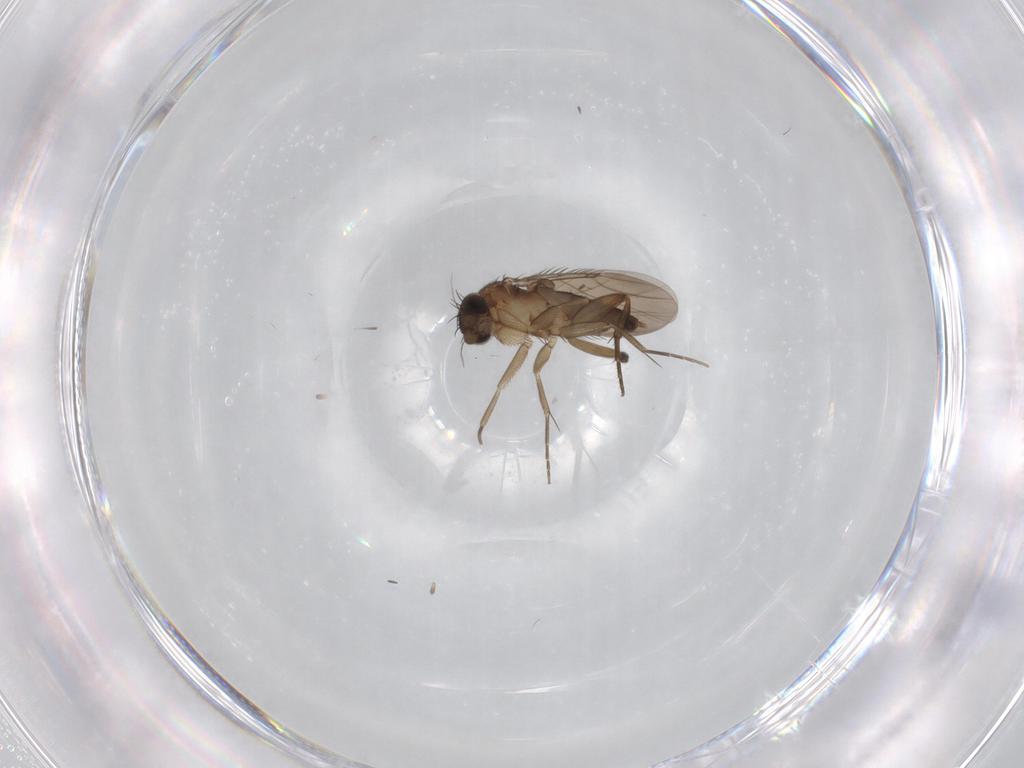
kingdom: Animalia
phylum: Arthropoda
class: Insecta
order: Diptera
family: Phoridae
